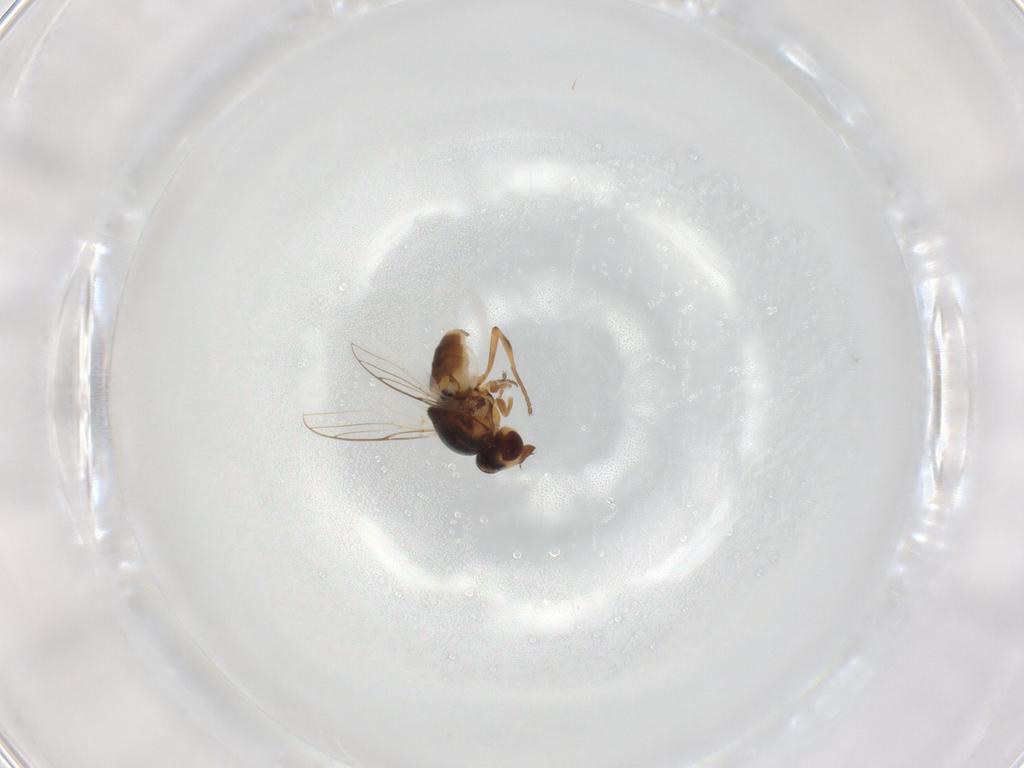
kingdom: Animalia
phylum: Arthropoda
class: Insecta
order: Diptera
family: Chloropidae
